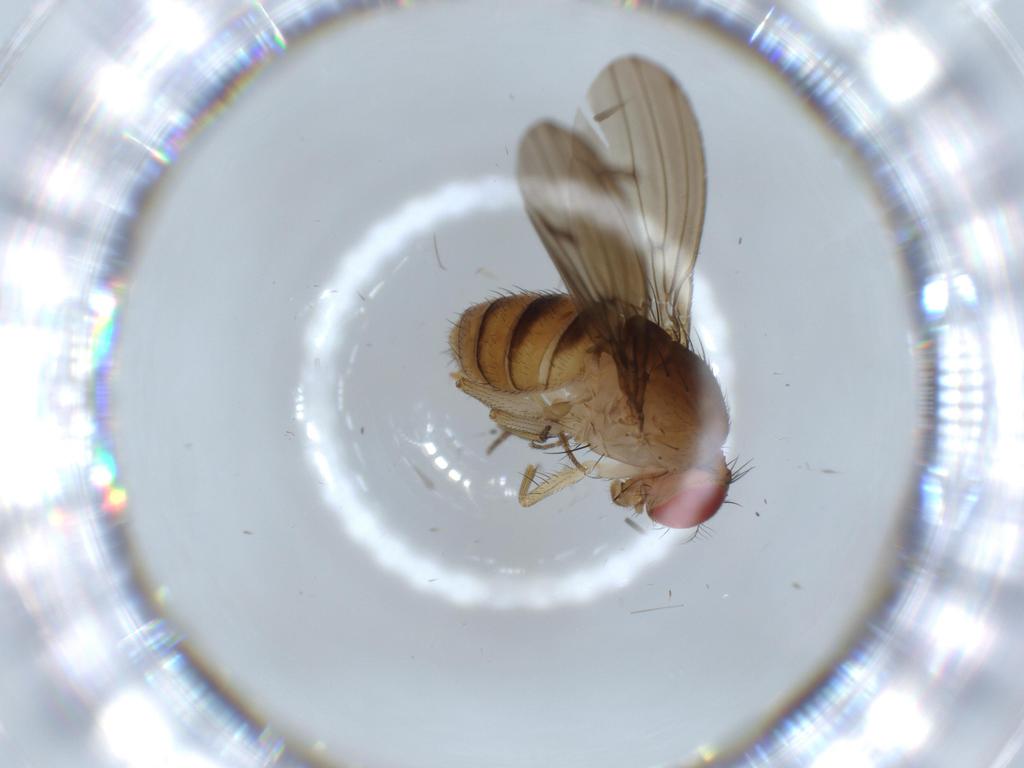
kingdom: Animalia
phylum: Arthropoda
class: Insecta
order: Diptera
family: Drosophilidae
